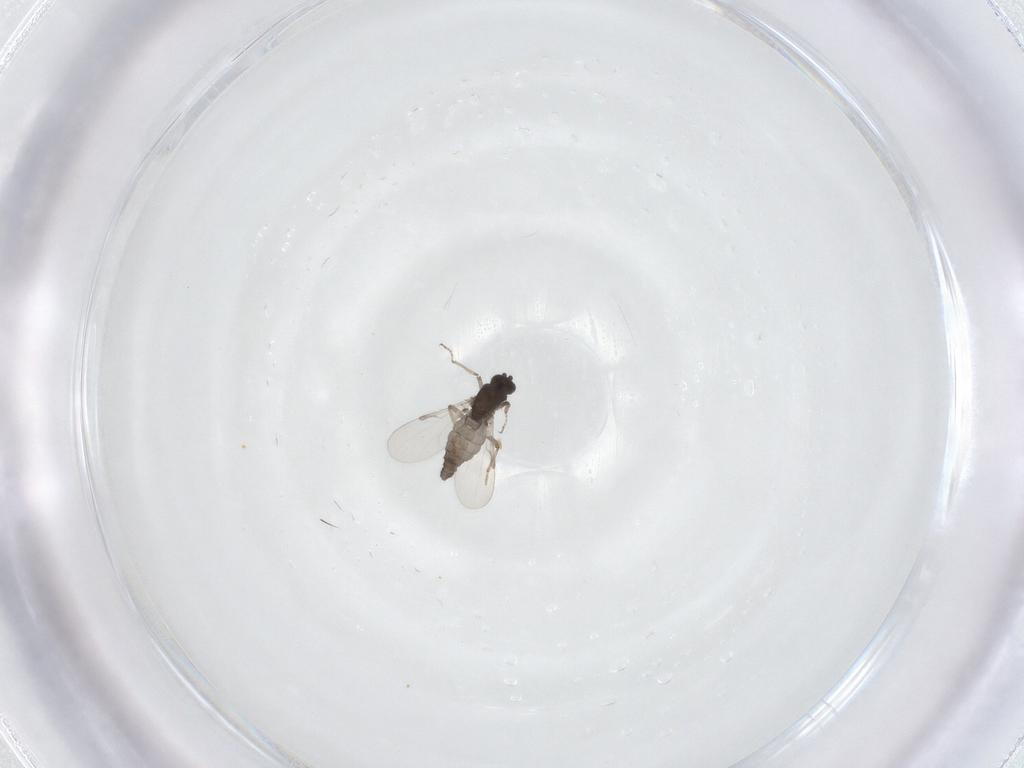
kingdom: Animalia
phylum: Arthropoda
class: Insecta
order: Diptera
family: Ceratopogonidae
